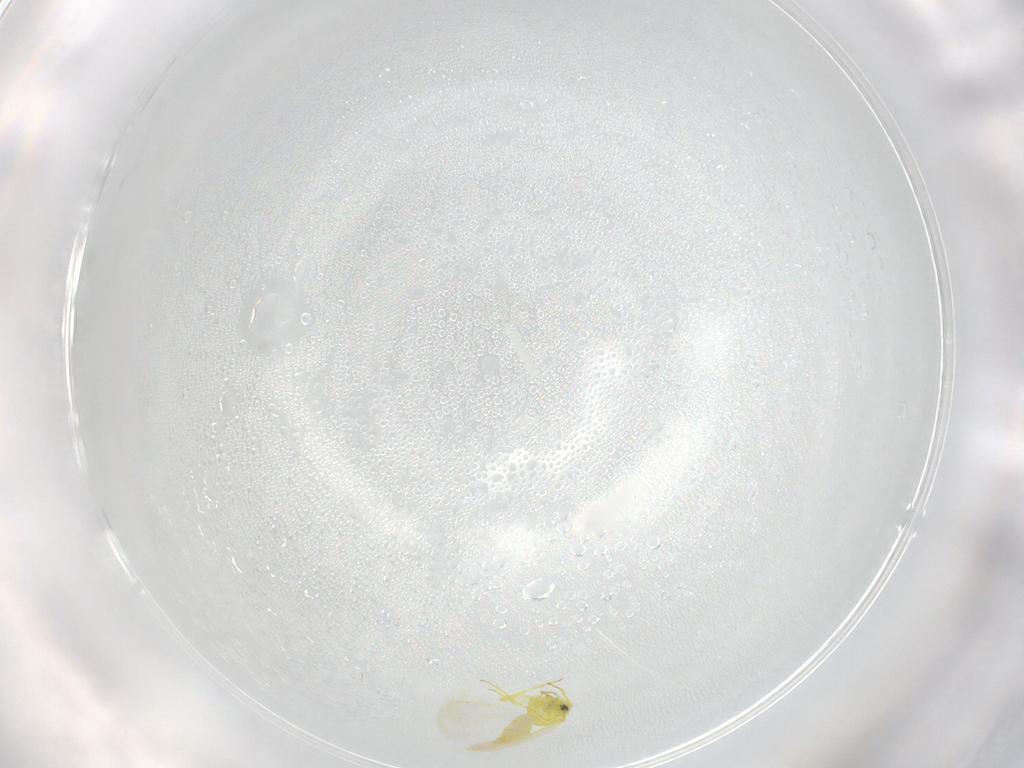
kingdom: Animalia
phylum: Arthropoda
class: Insecta
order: Hemiptera
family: Aleyrodidae
